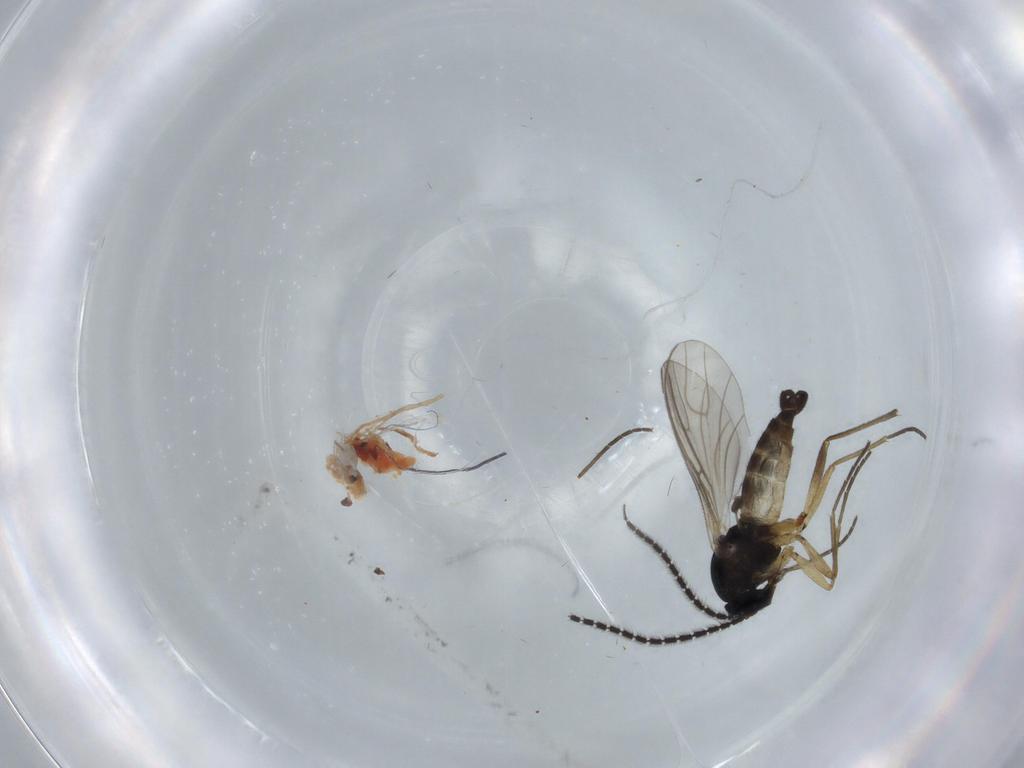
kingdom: Animalia
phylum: Arthropoda
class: Insecta
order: Diptera
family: Sciaridae
